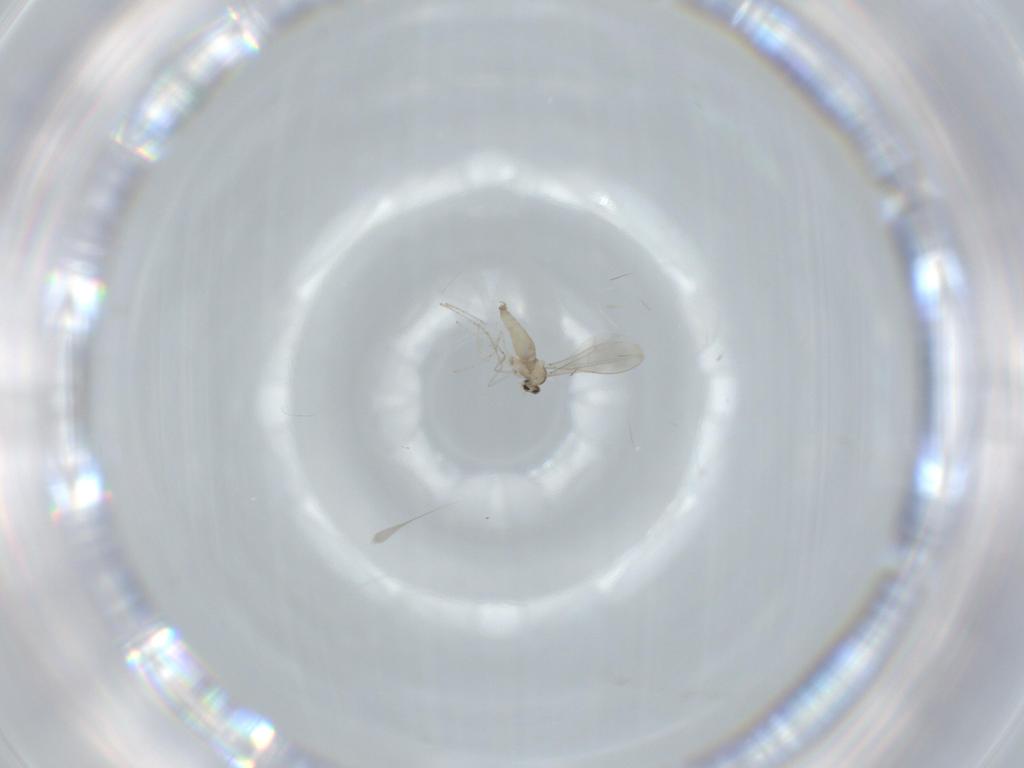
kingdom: Animalia
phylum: Arthropoda
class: Insecta
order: Diptera
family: Cecidomyiidae
